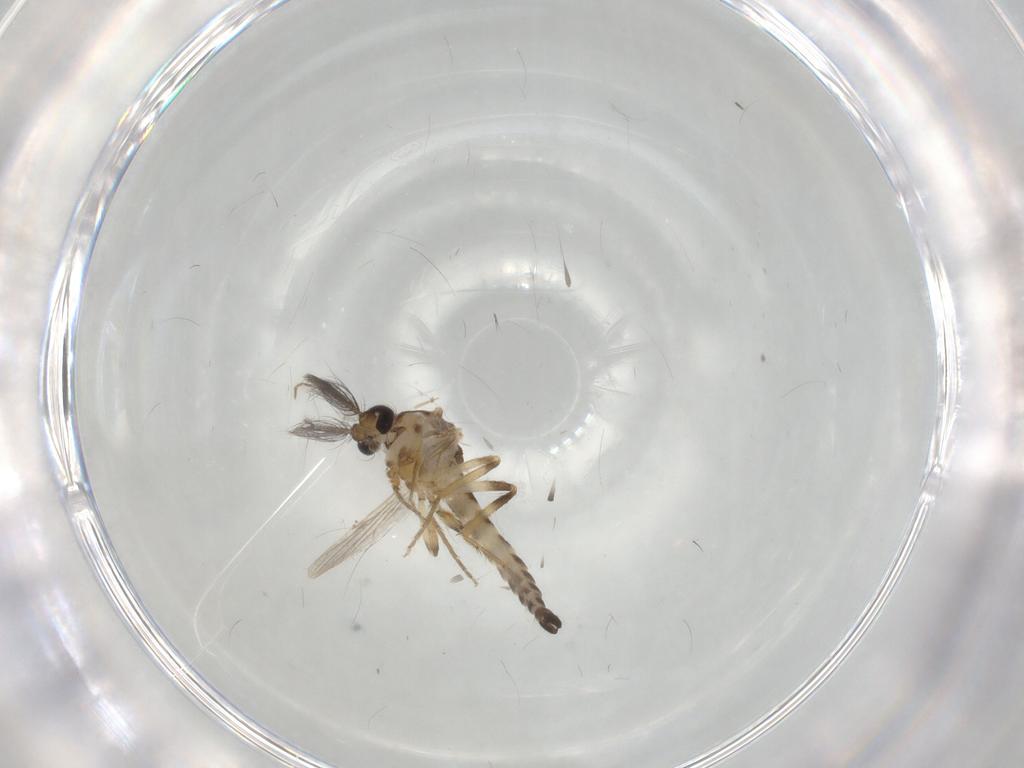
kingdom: Animalia
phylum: Arthropoda
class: Insecta
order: Diptera
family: Ceratopogonidae
